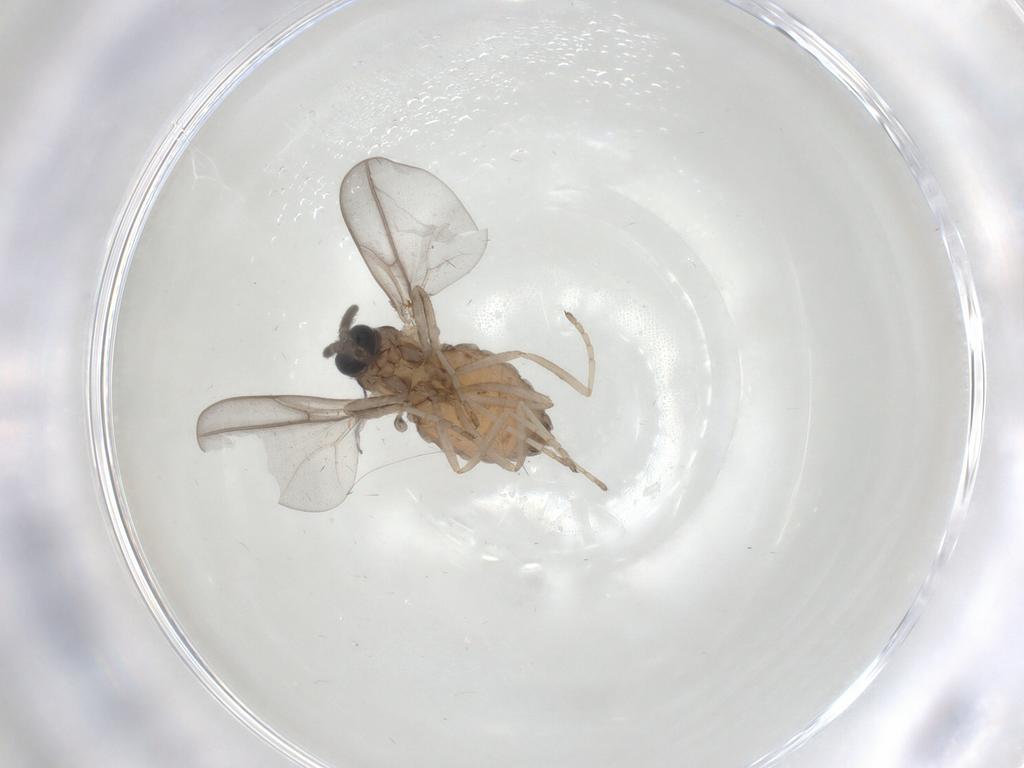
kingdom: Animalia
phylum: Arthropoda
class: Insecta
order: Diptera
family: Cecidomyiidae
